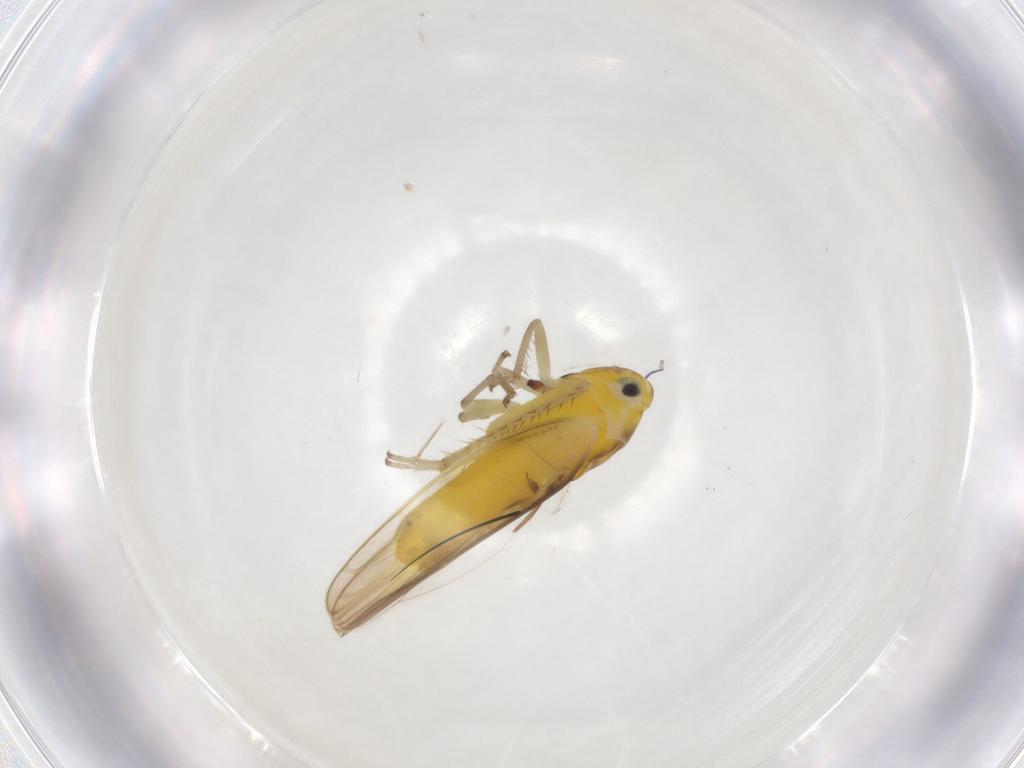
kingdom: Animalia
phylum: Arthropoda
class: Insecta
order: Hemiptera
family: Cicadellidae
